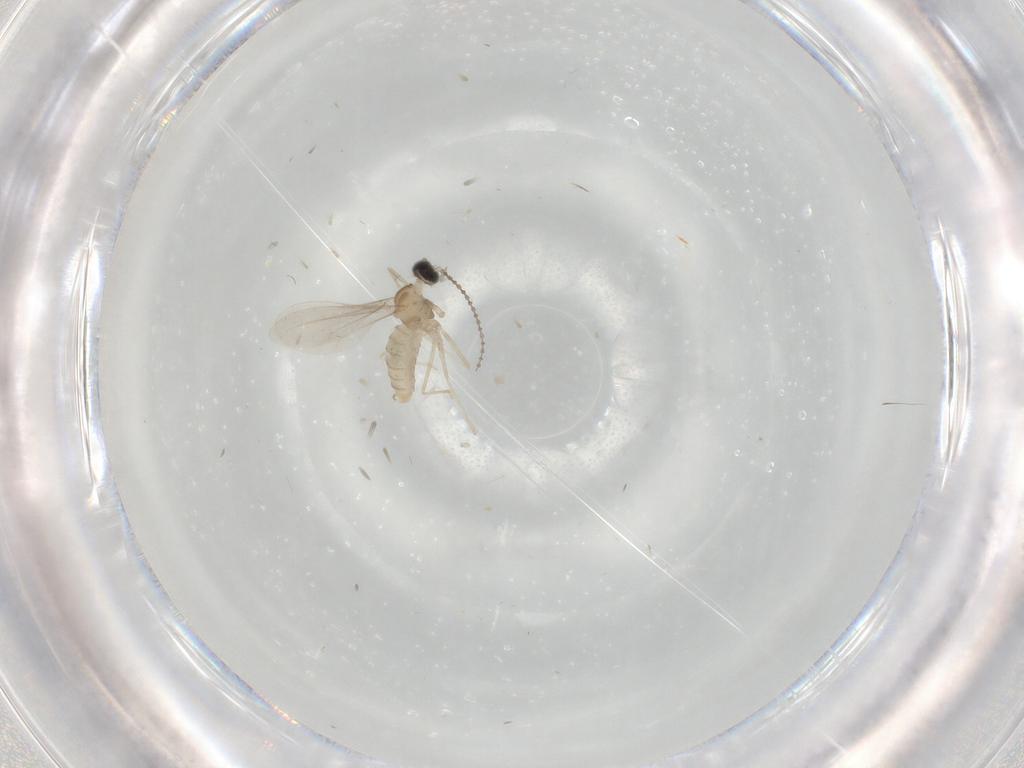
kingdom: Animalia
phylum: Arthropoda
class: Insecta
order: Diptera
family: Cecidomyiidae
